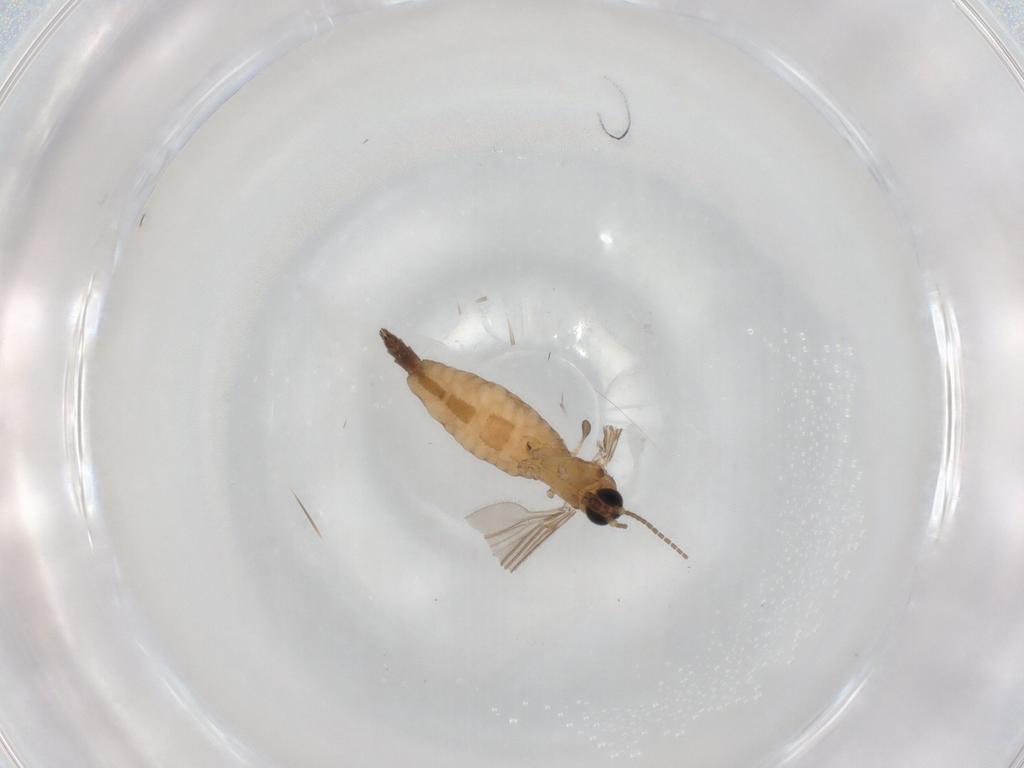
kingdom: Animalia
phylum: Arthropoda
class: Insecta
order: Diptera
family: Sciaridae
